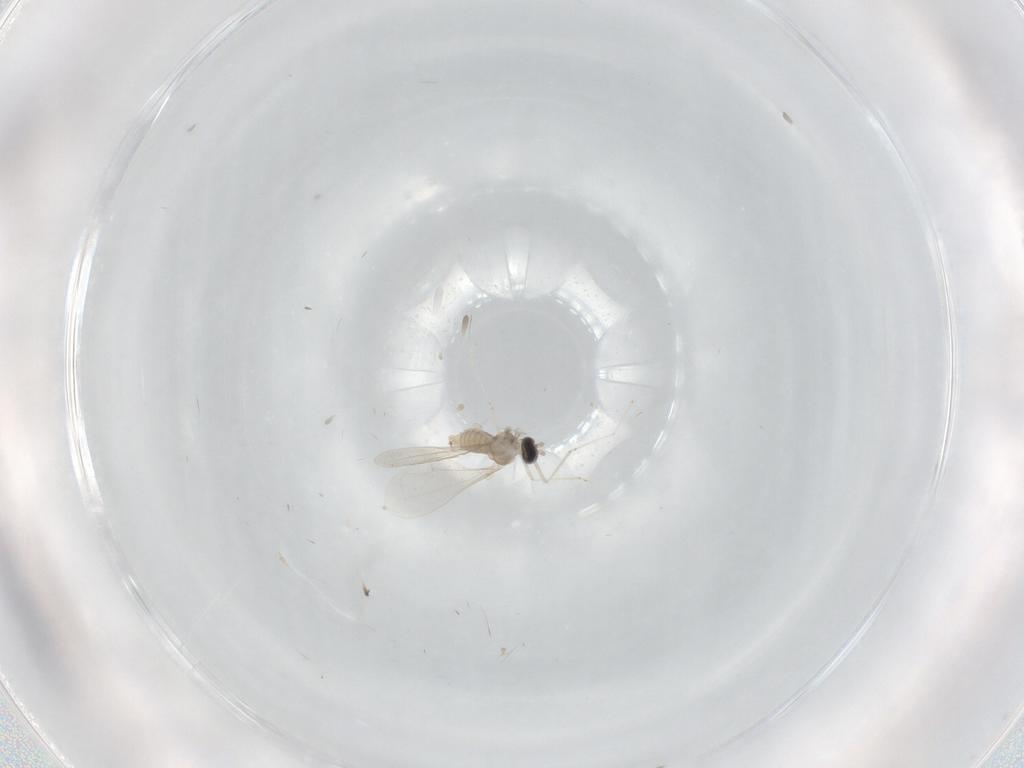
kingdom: Animalia
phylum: Arthropoda
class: Insecta
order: Diptera
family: Cecidomyiidae
